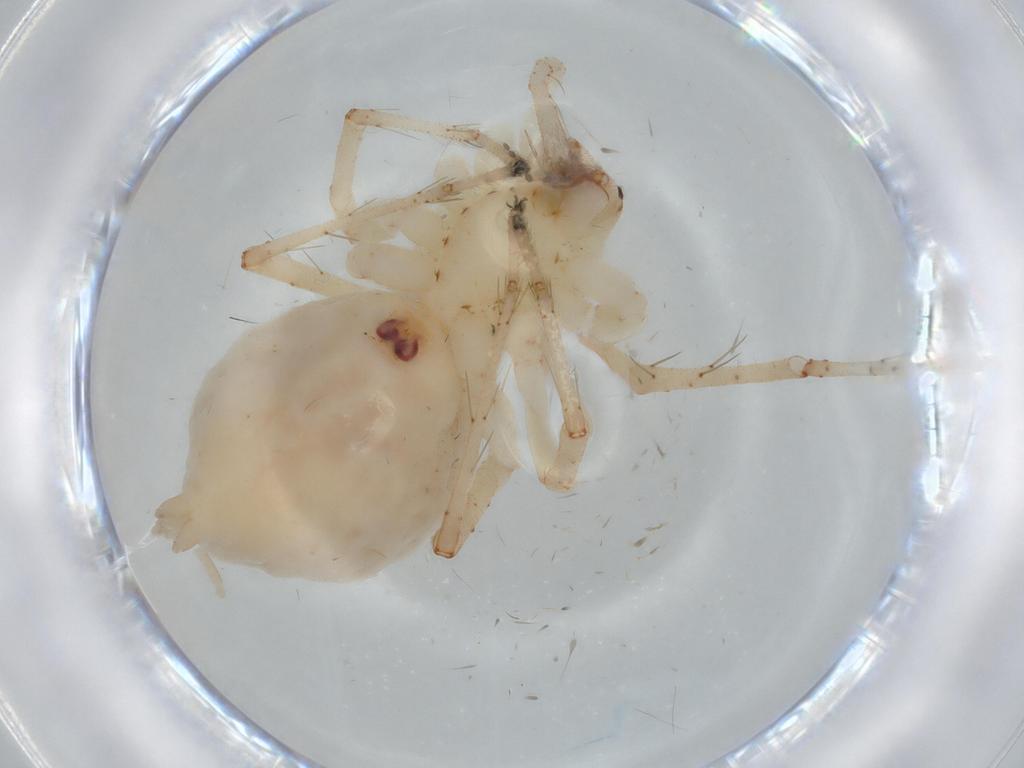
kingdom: Animalia
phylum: Arthropoda
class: Arachnida
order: Araneae
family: Anyphaenidae
